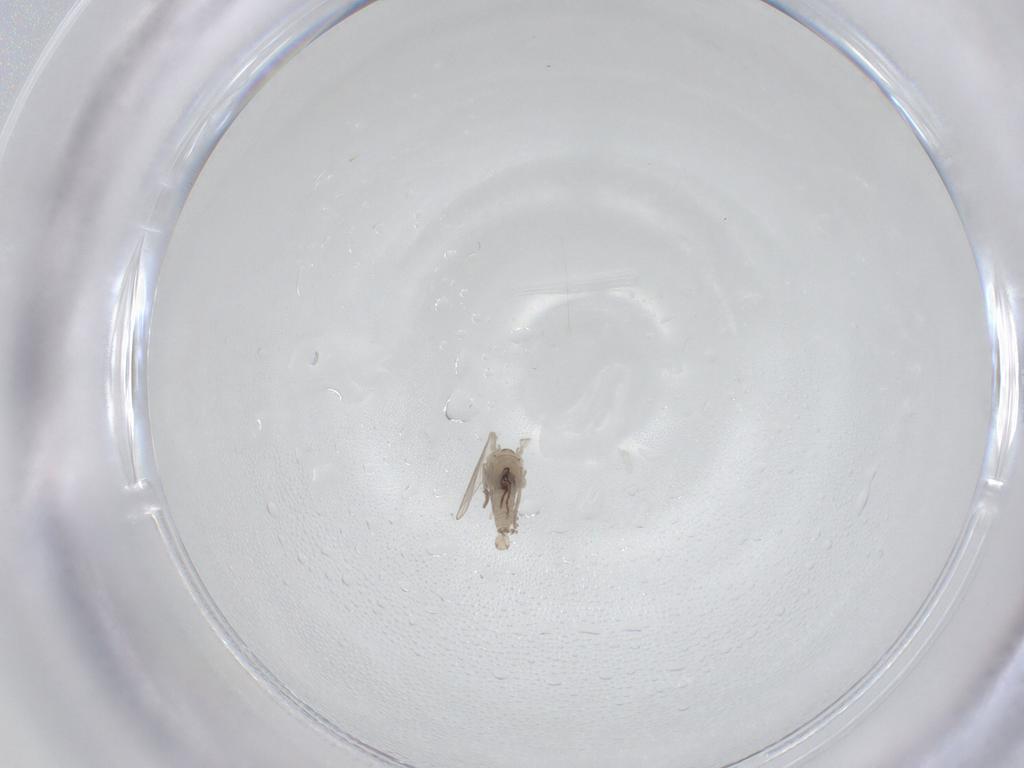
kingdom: Animalia
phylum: Arthropoda
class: Insecta
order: Diptera
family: Psychodidae
